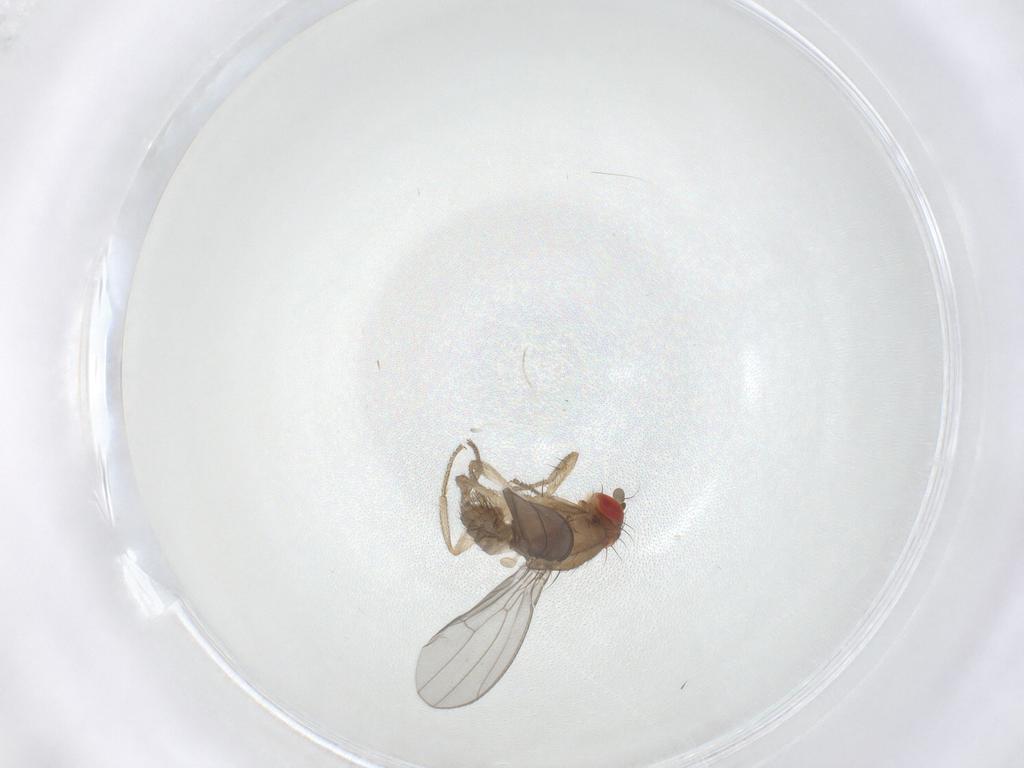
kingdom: Animalia
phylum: Arthropoda
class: Insecta
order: Diptera
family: Drosophilidae
